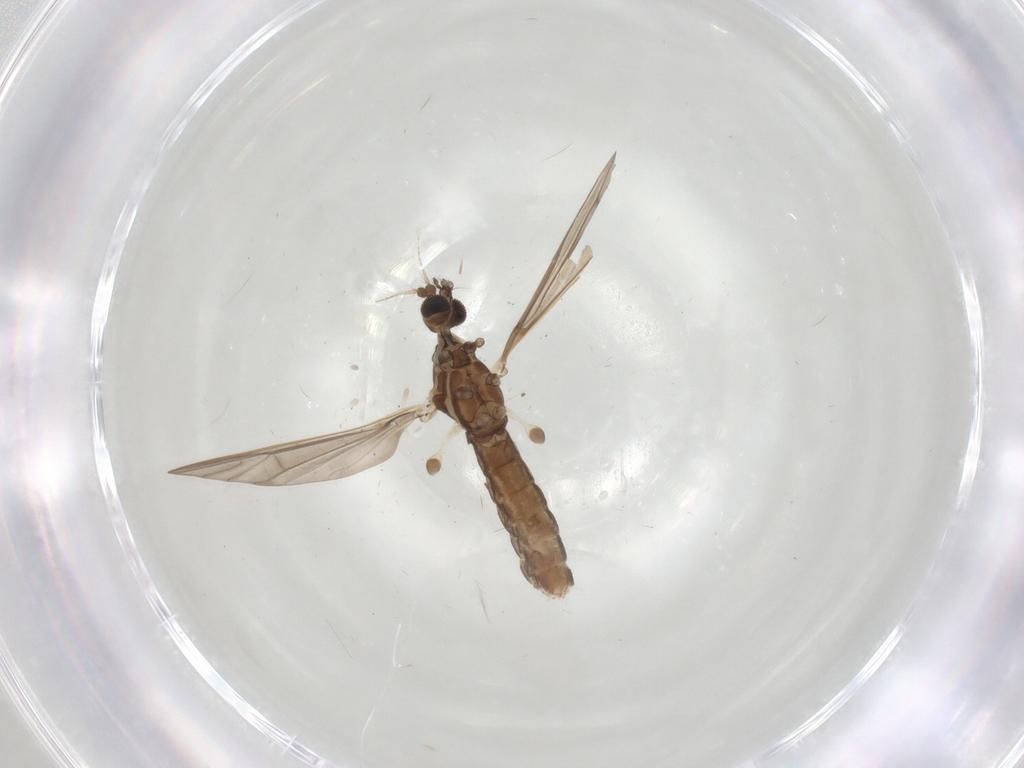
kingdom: Animalia
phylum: Arthropoda
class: Insecta
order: Diptera
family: Limoniidae
